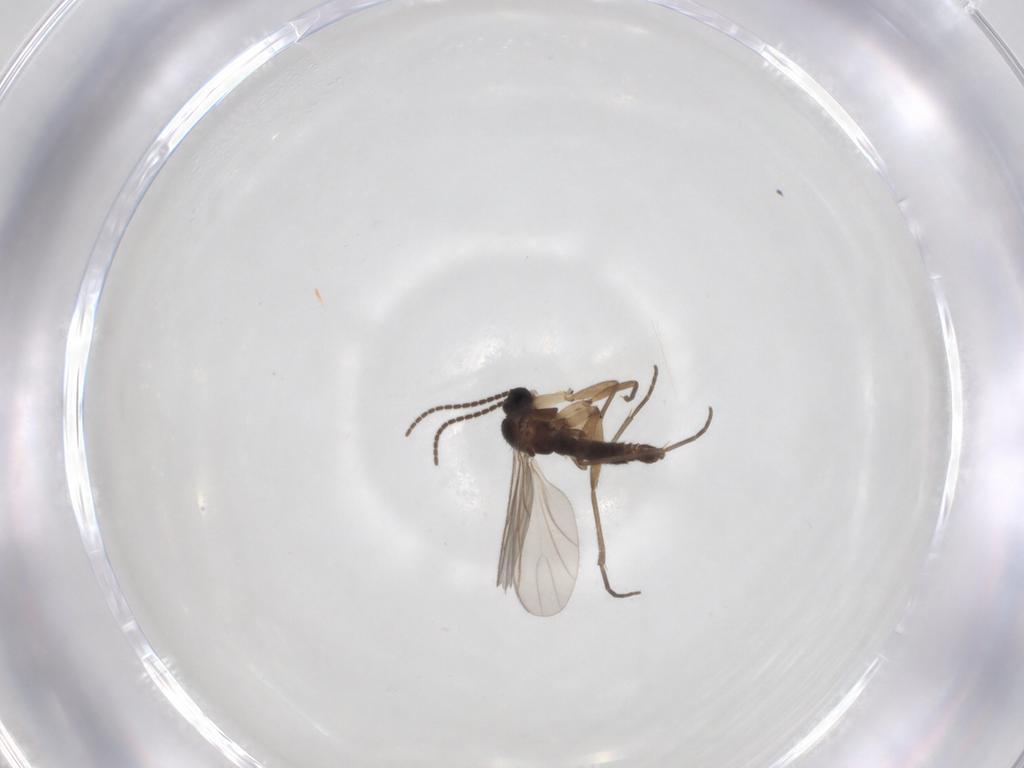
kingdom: Animalia
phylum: Arthropoda
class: Insecta
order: Diptera
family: Sciaridae
